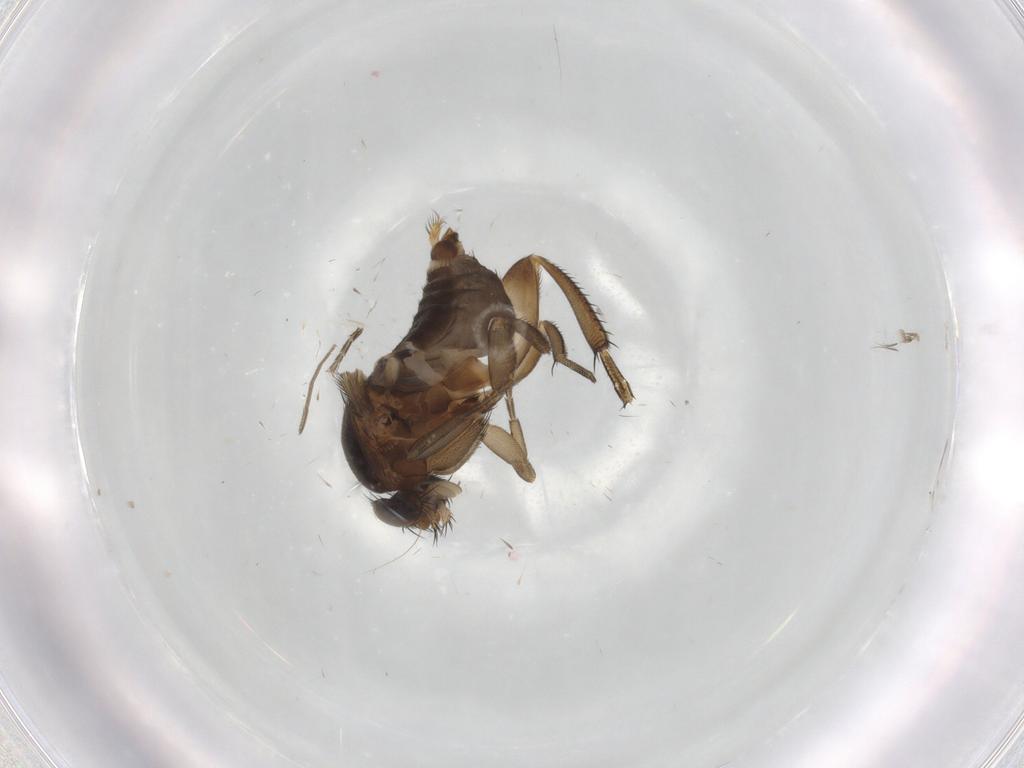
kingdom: Animalia
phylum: Arthropoda
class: Insecta
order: Diptera
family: Phoridae
